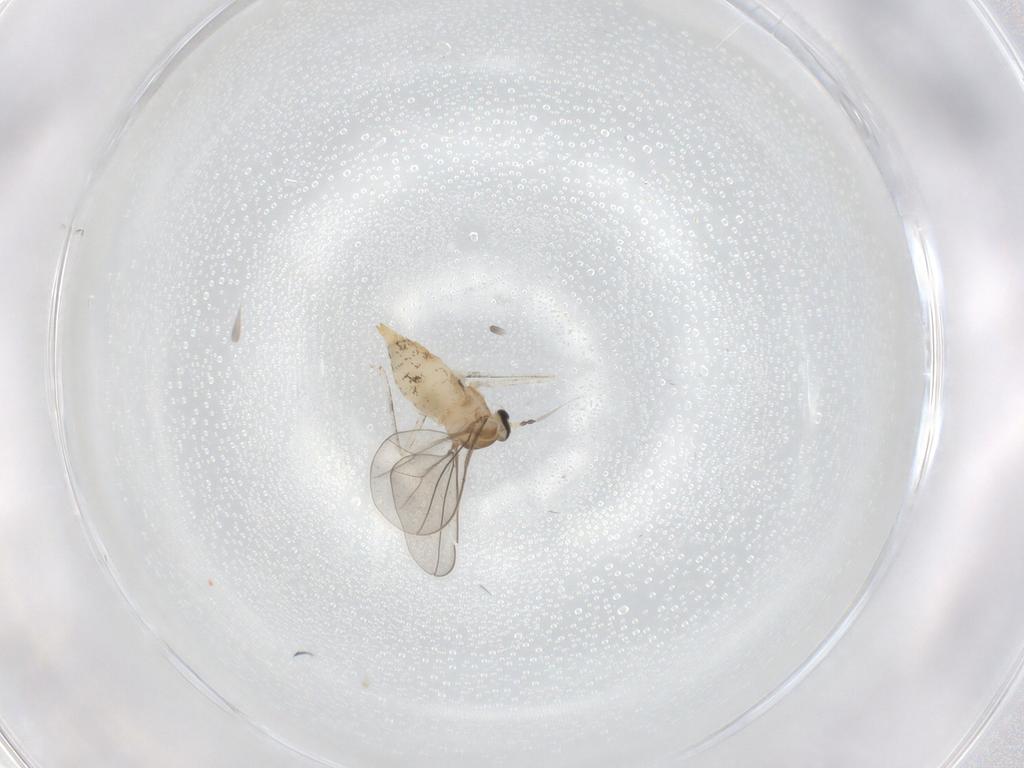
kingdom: Animalia
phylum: Arthropoda
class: Insecta
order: Diptera
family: Cecidomyiidae
